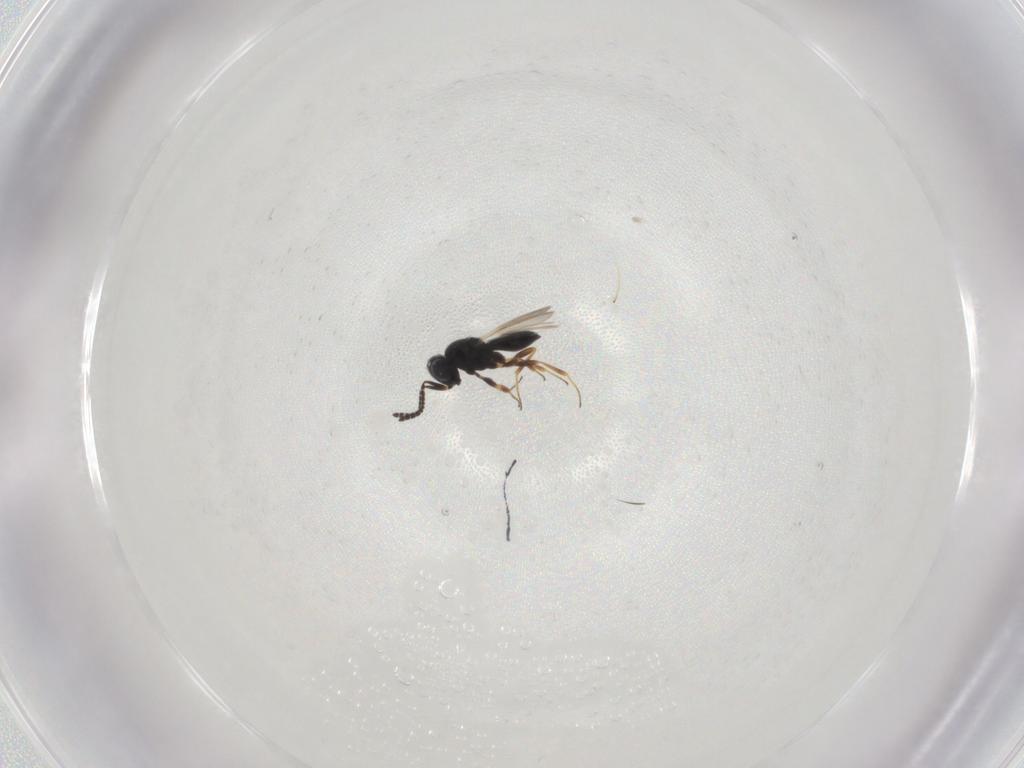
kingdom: Animalia
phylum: Arthropoda
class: Insecta
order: Hymenoptera
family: Scelionidae
